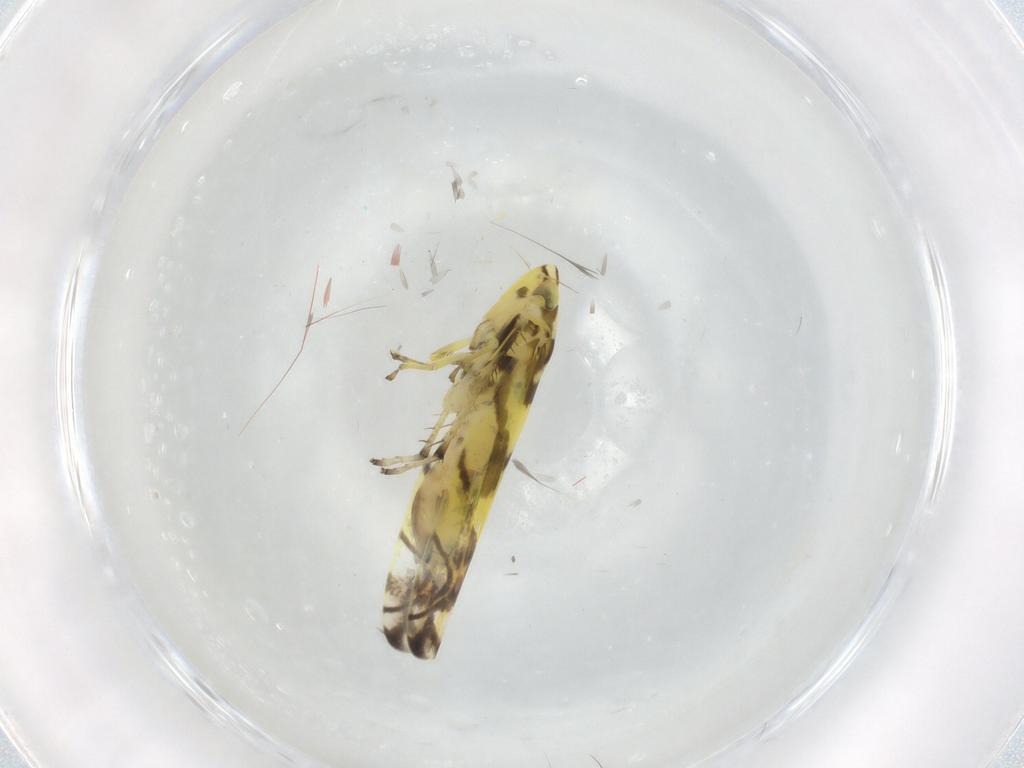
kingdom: Animalia
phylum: Arthropoda
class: Insecta
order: Hemiptera
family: Cicadellidae
